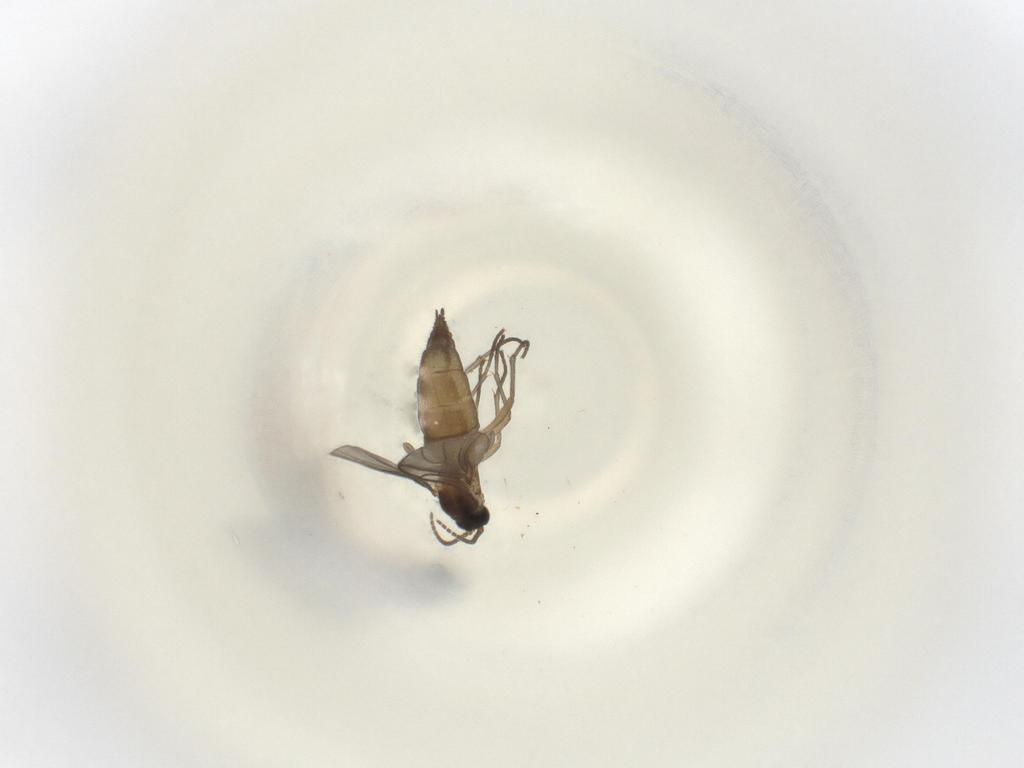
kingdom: Animalia
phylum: Arthropoda
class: Insecta
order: Diptera
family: Sciaridae
